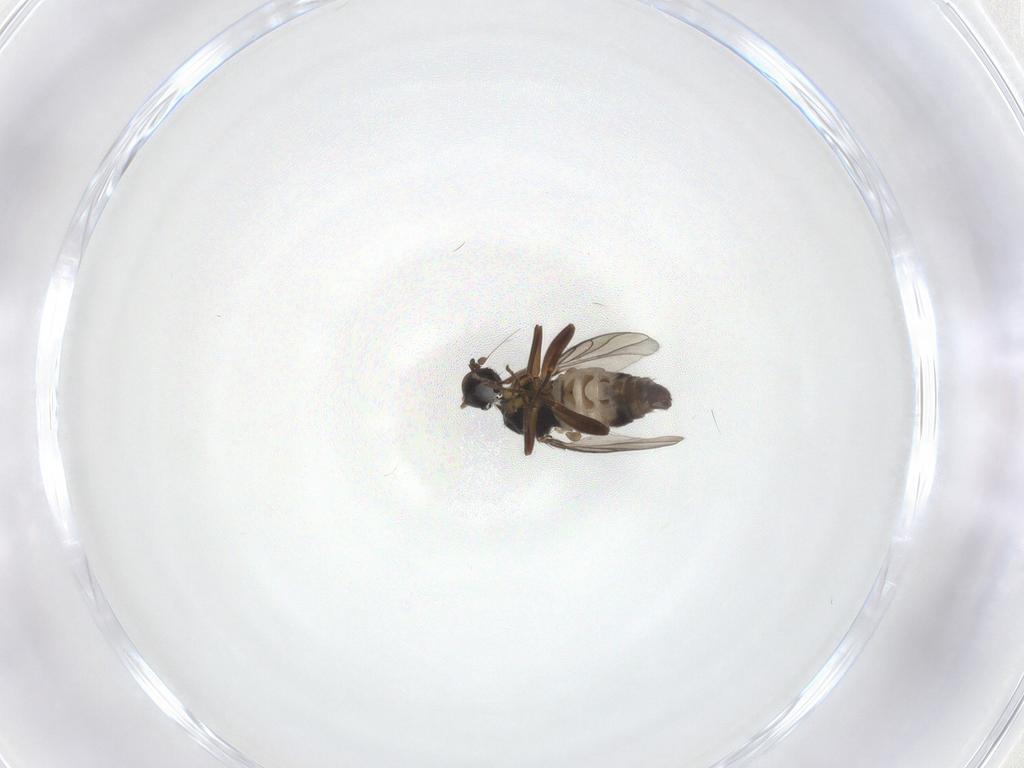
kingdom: Animalia
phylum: Arthropoda
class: Insecta
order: Diptera
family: Hybotidae
